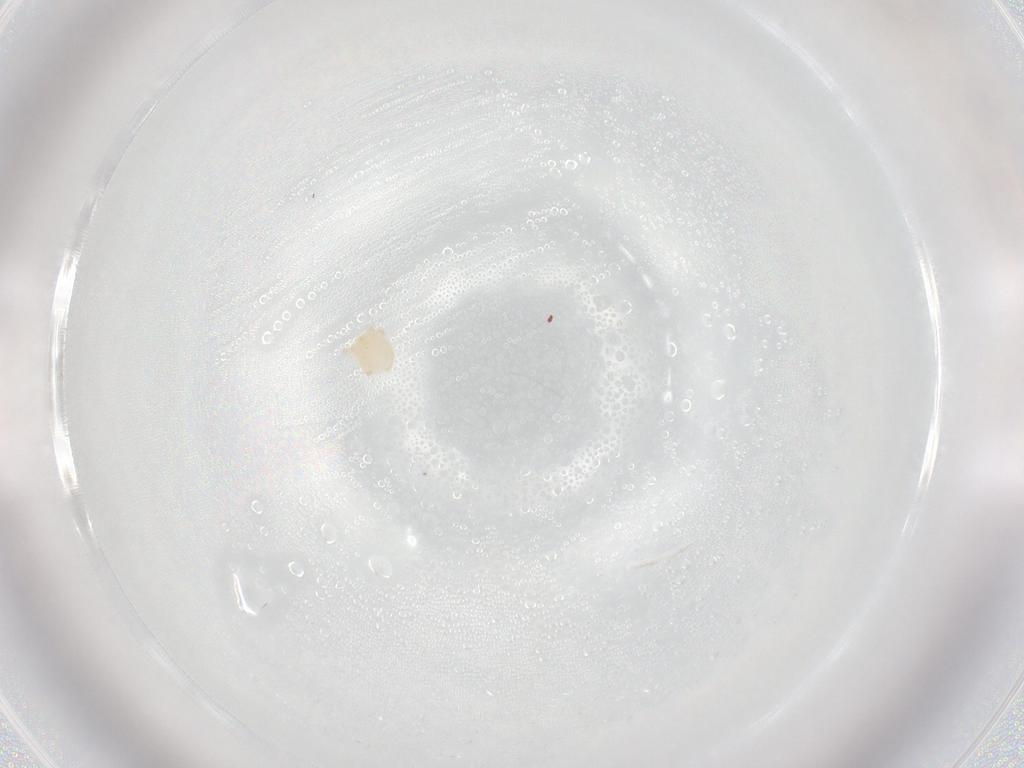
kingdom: Animalia
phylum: Arthropoda
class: Arachnida
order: Trombidiformes
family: Sperchontidae
